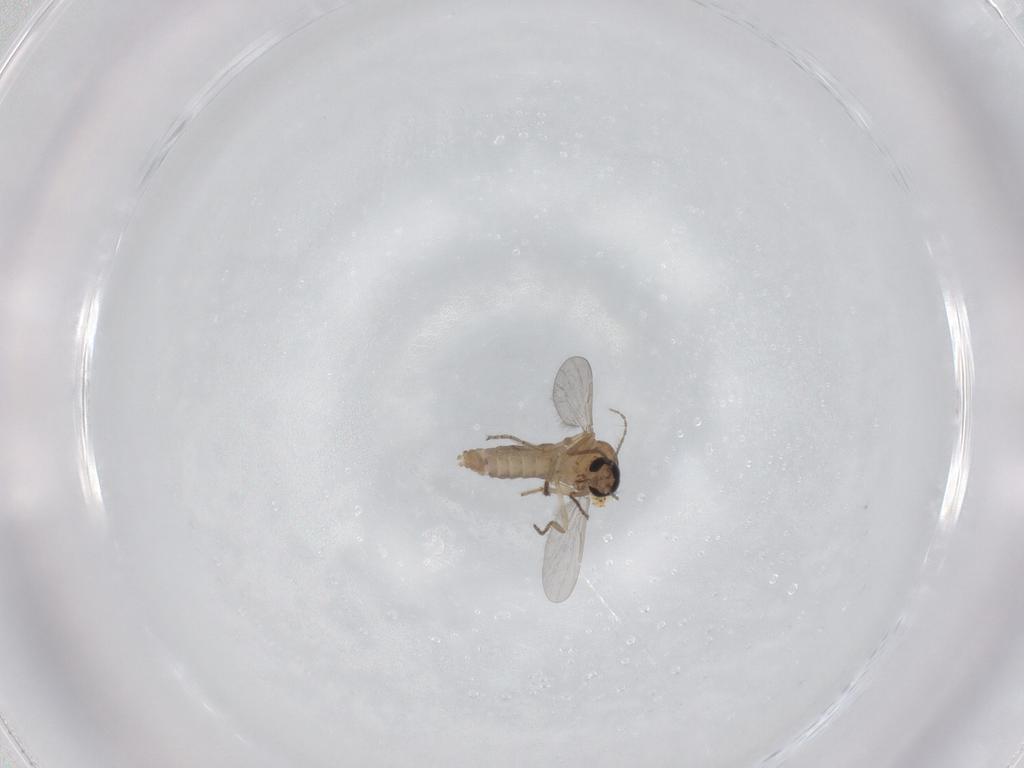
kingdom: Animalia
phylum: Arthropoda
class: Insecta
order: Diptera
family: Ceratopogonidae
